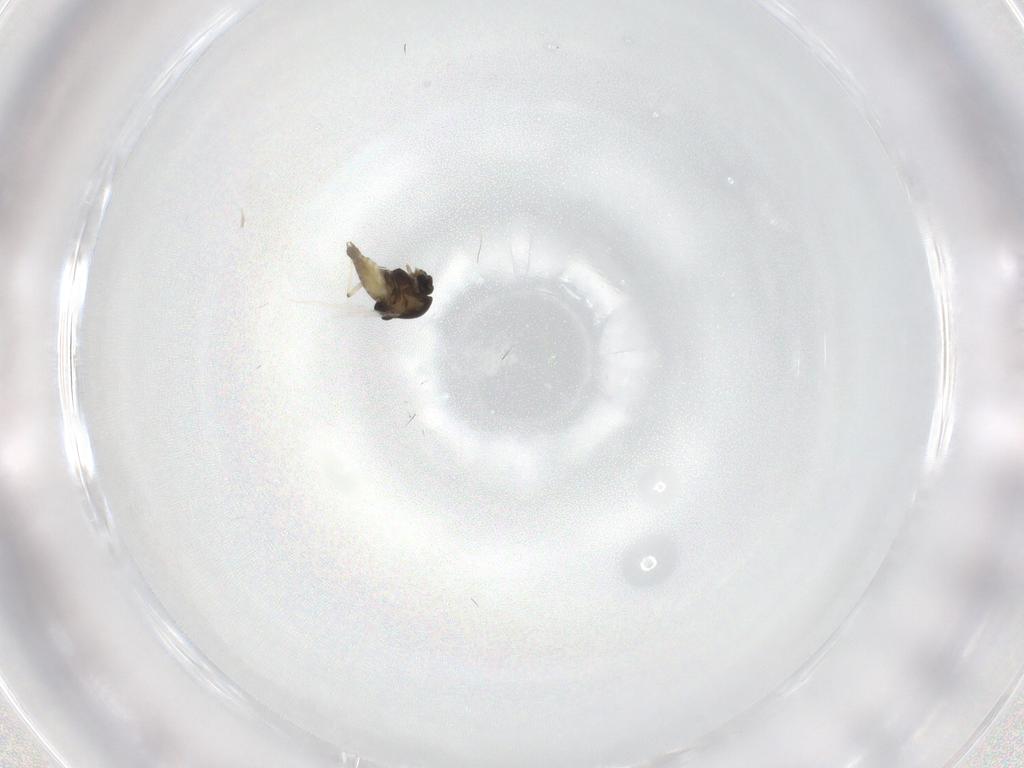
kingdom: Animalia
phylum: Arthropoda
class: Insecta
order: Diptera
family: Chironomidae
